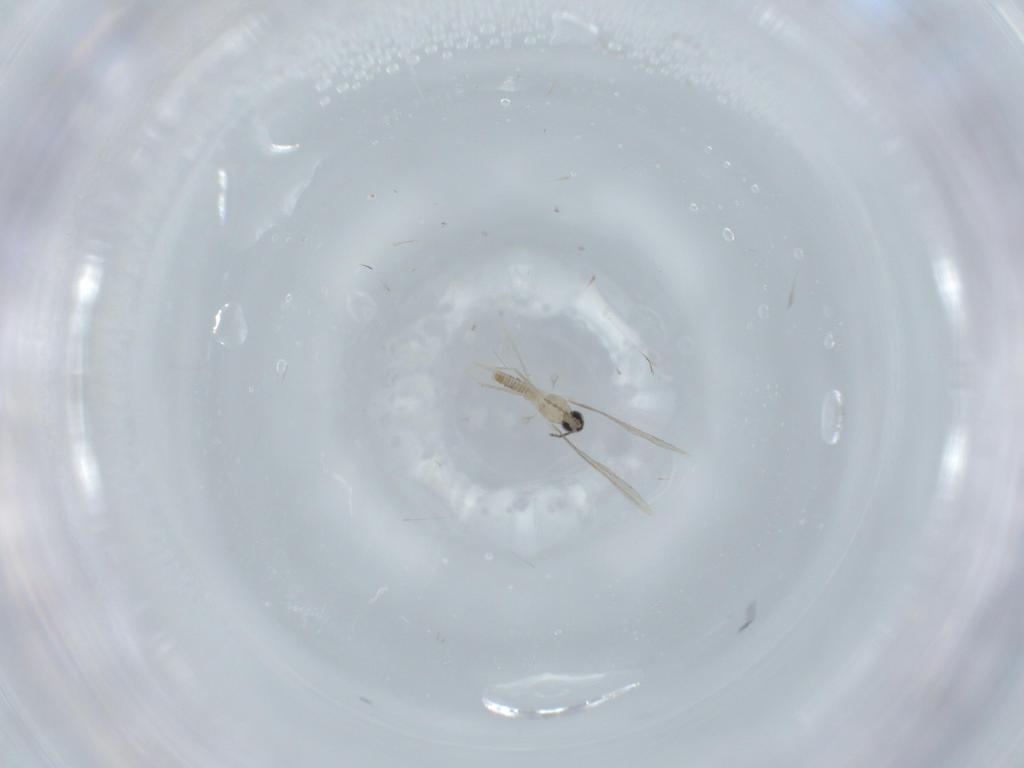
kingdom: Animalia
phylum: Arthropoda
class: Insecta
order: Diptera
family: Cecidomyiidae
